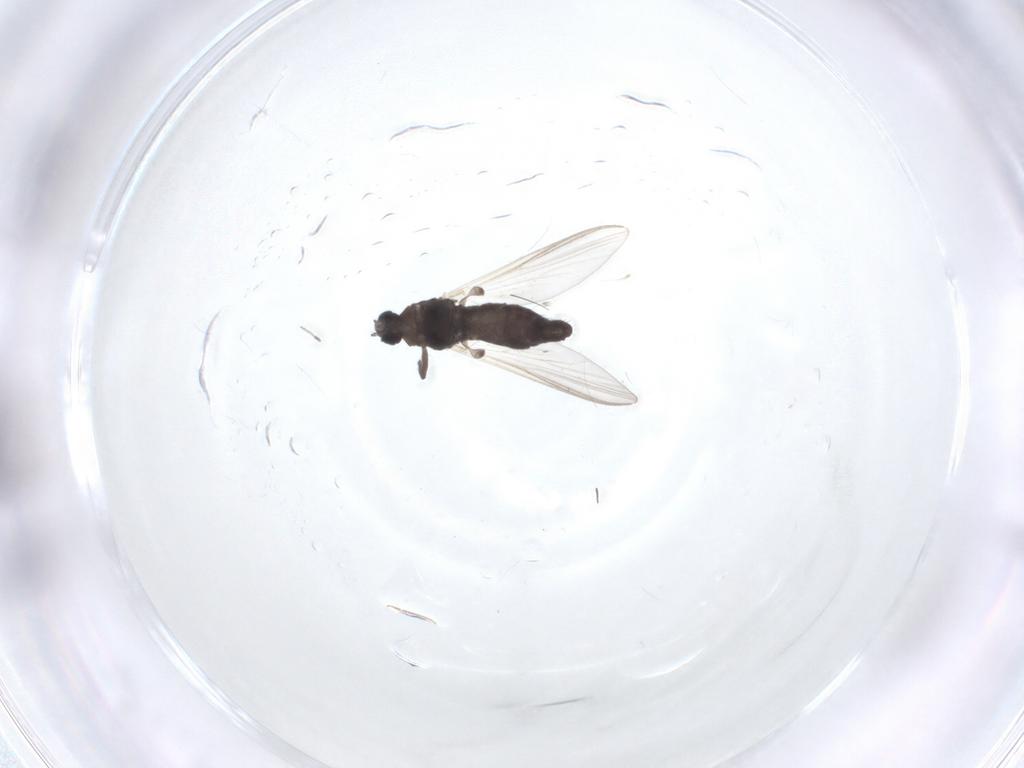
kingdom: Animalia
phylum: Arthropoda
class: Insecta
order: Diptera
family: Chironomidae
